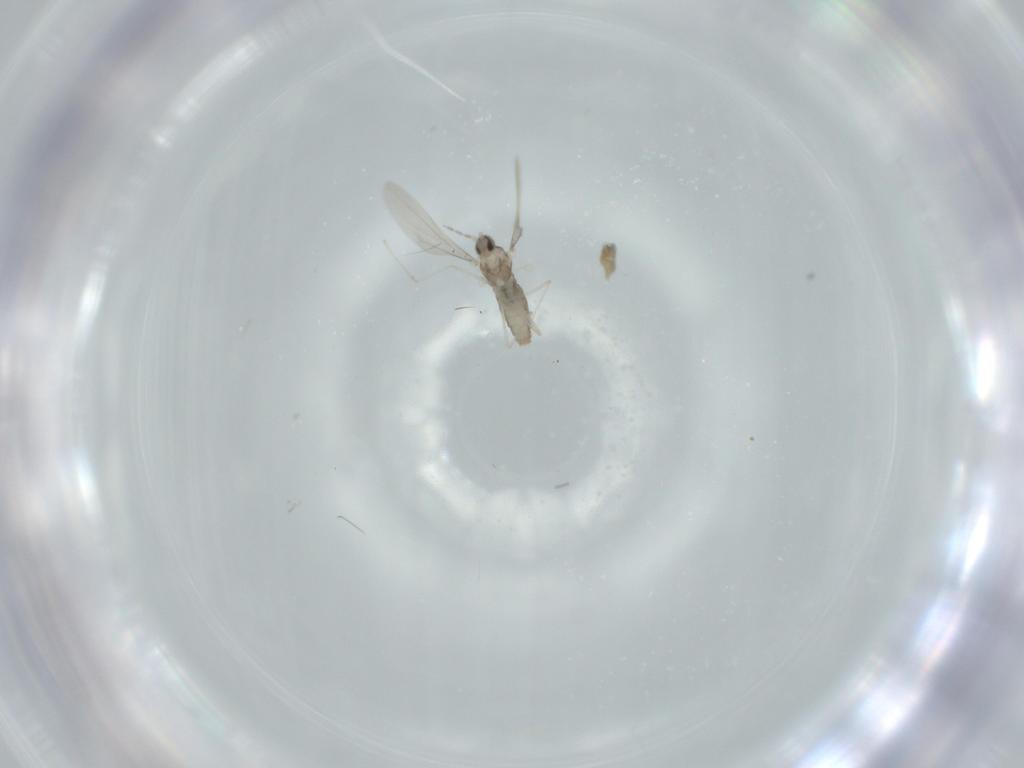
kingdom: Animalia
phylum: Arthropoda
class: Insecta
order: Diptera
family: Cecidomyiidae
